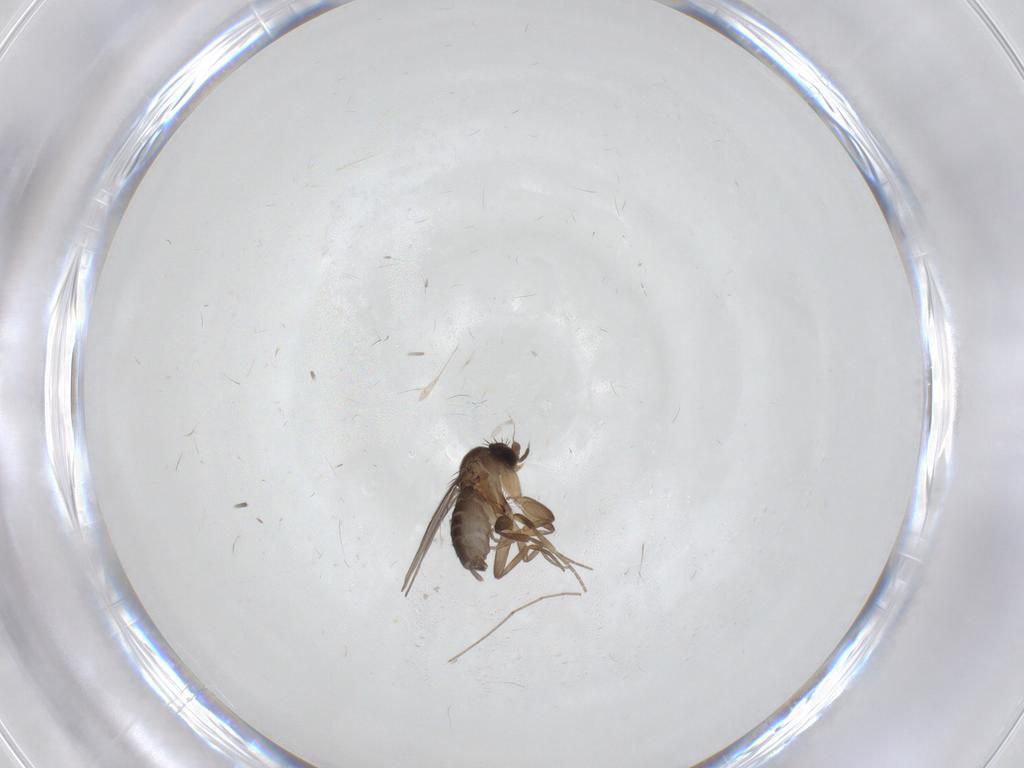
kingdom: Animalia
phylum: Arthropoda
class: Insecta
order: Diptera
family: Phoridae
